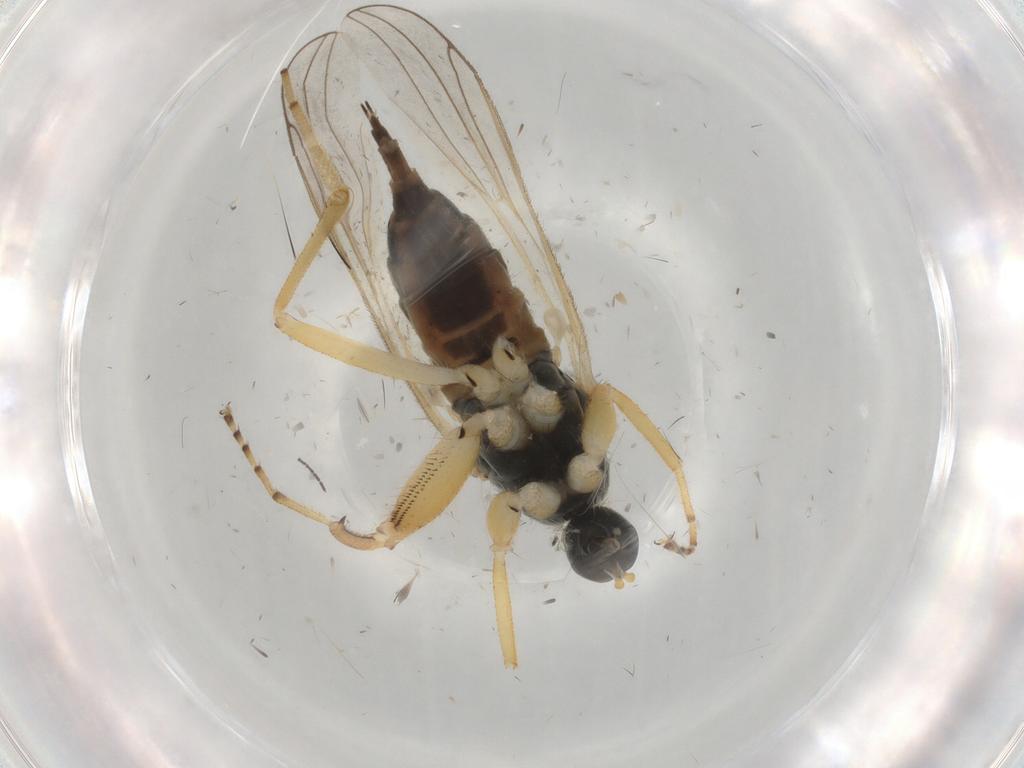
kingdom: Animalia
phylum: Arthropoda
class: Insecta
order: Diptera
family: Hybotidae
